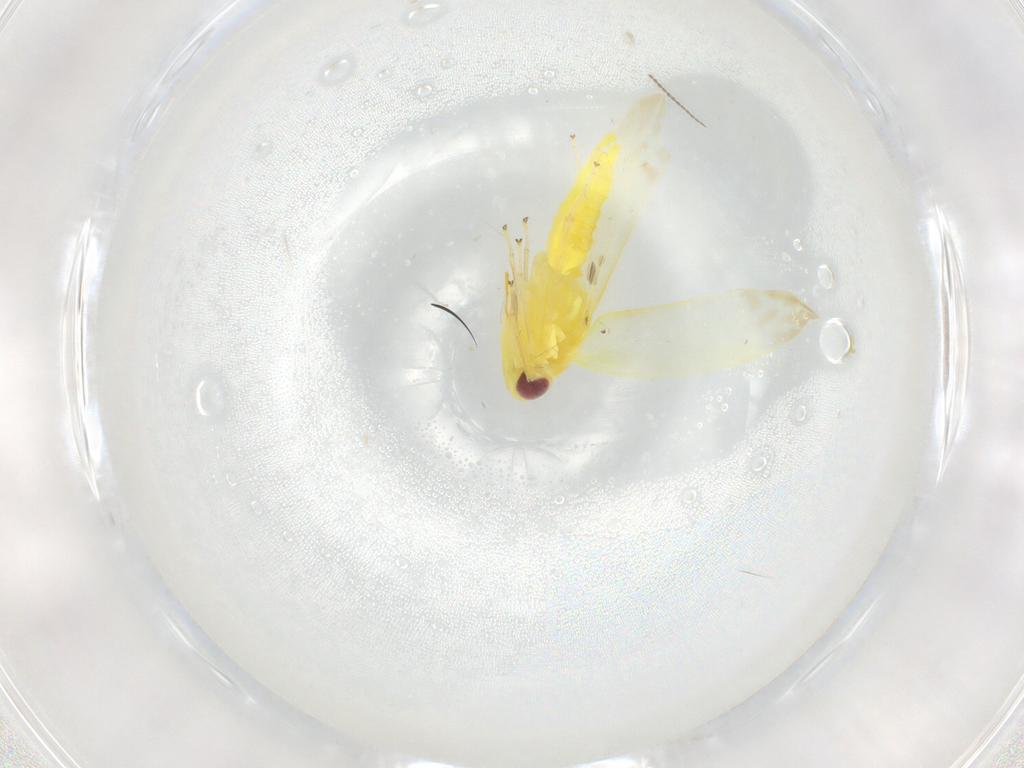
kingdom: Animalia
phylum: Arthropoda
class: Insecta
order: Hemiptera
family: Cicadellidae
